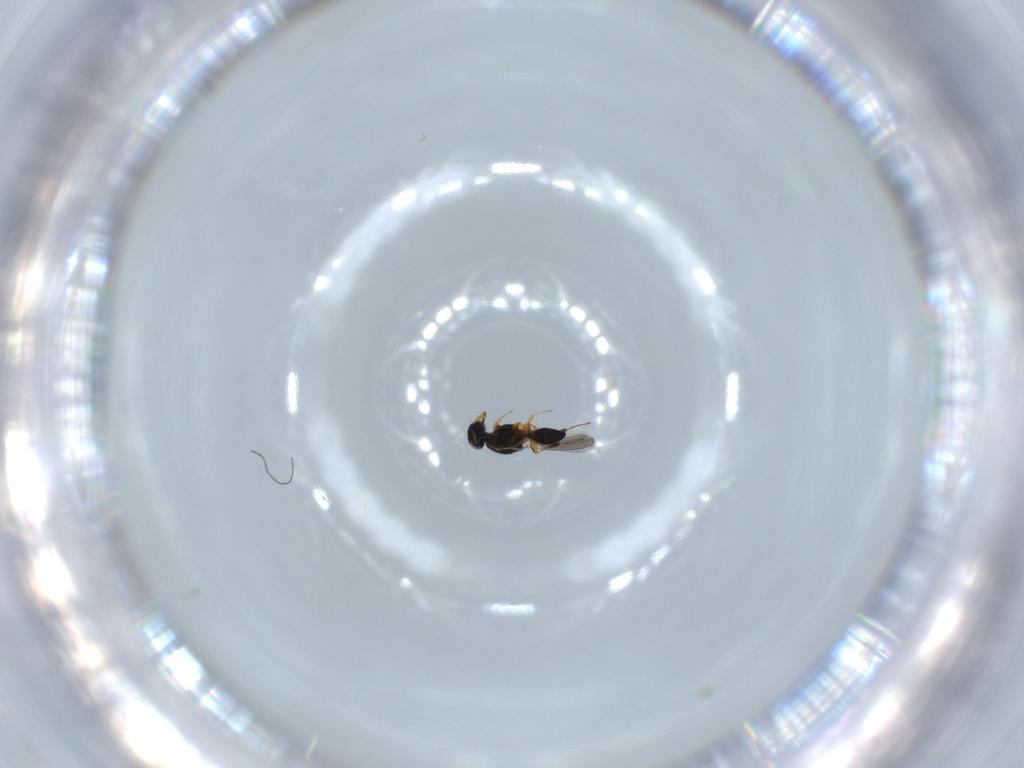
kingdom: Animalia
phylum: Arthropoda
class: Insecta
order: Hymenoptera
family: Platygastridae
